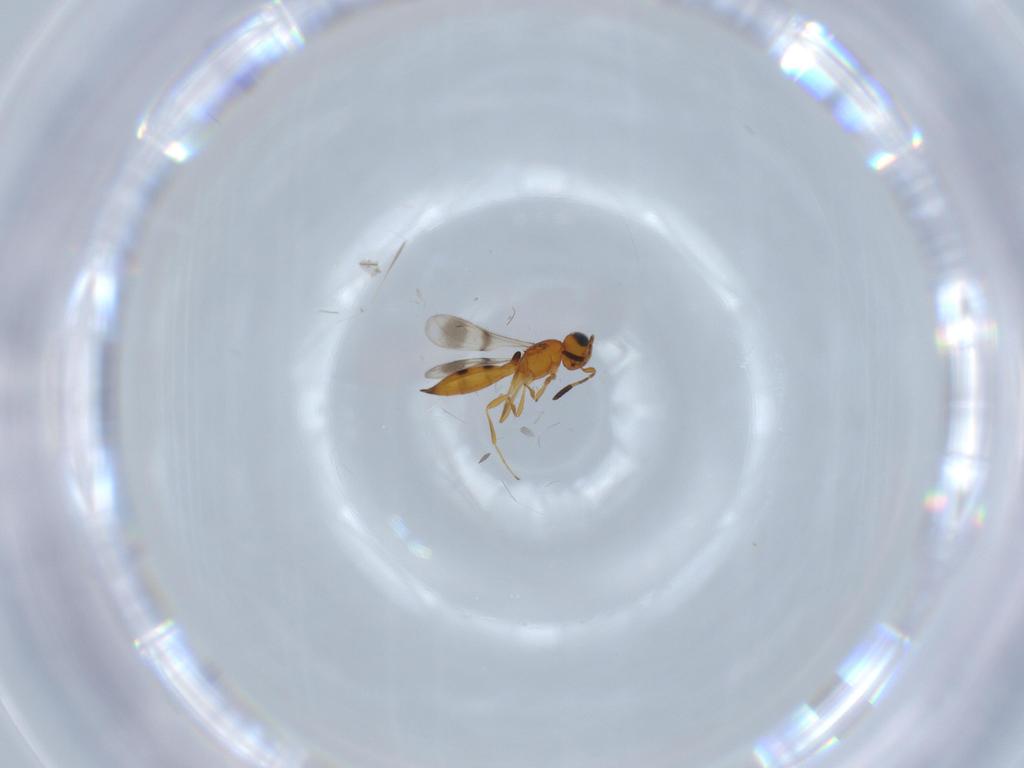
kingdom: Animalia
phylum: Arthropoda
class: Insecta
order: Hymenoptera
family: Scelionidae
